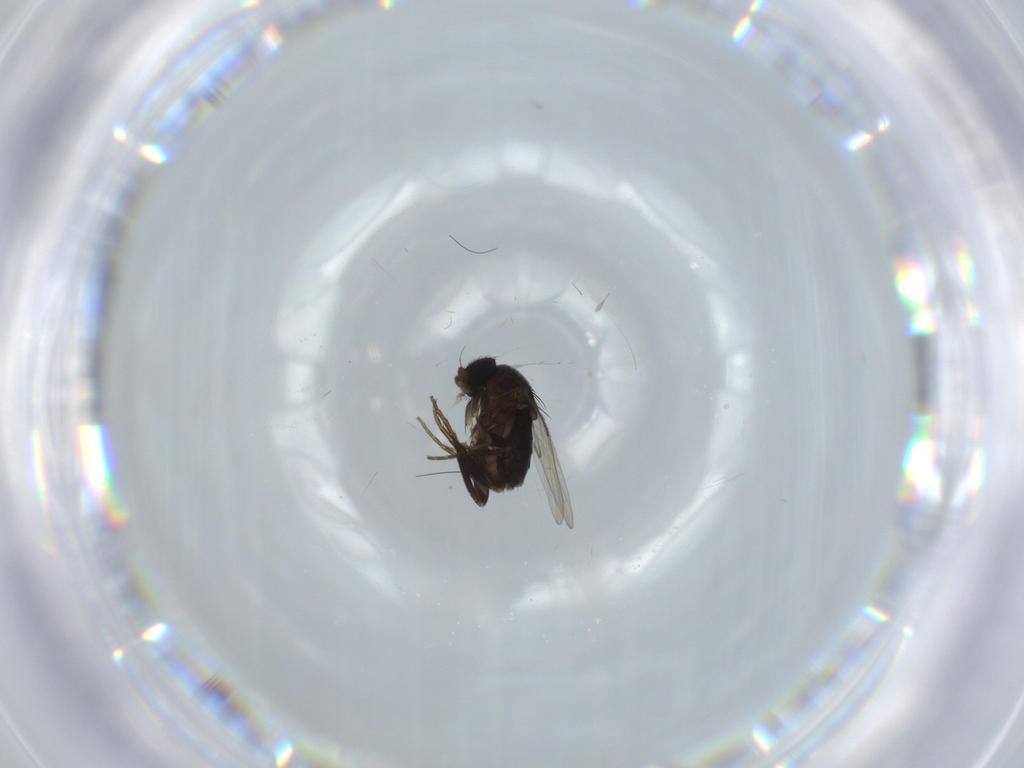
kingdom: Animalia
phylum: Arthropoda
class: Insecta
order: Diptera
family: Phoridae
